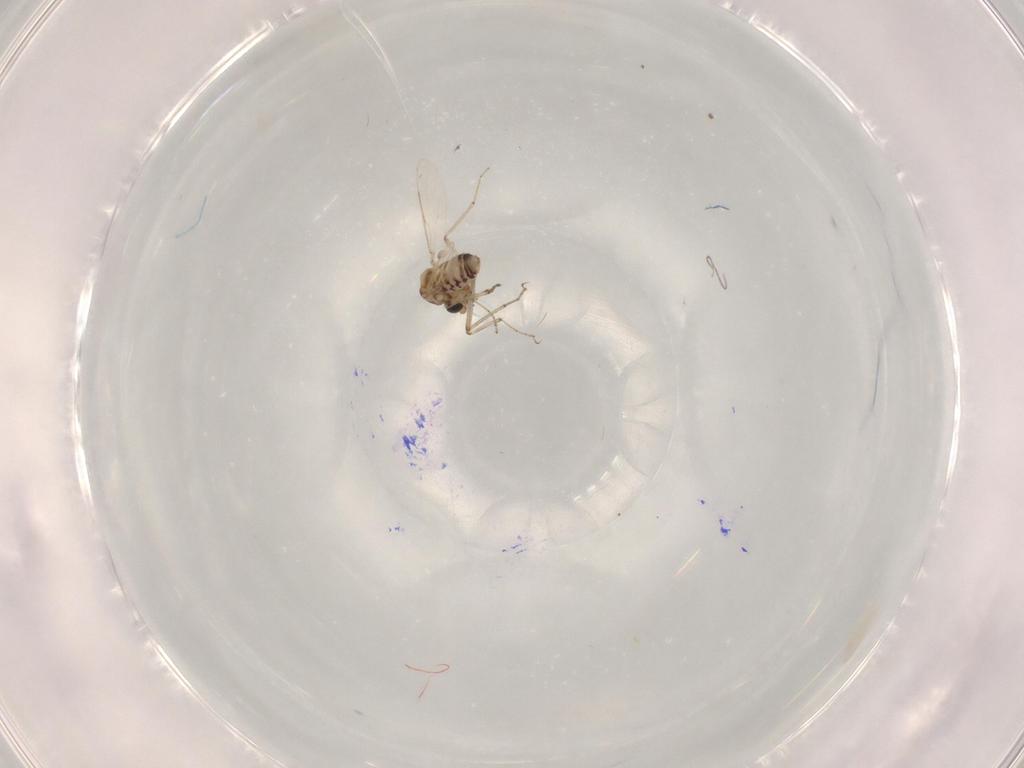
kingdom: Animalia
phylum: Arthropoda
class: Insecta
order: Diptera
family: Ceratopogonidae
